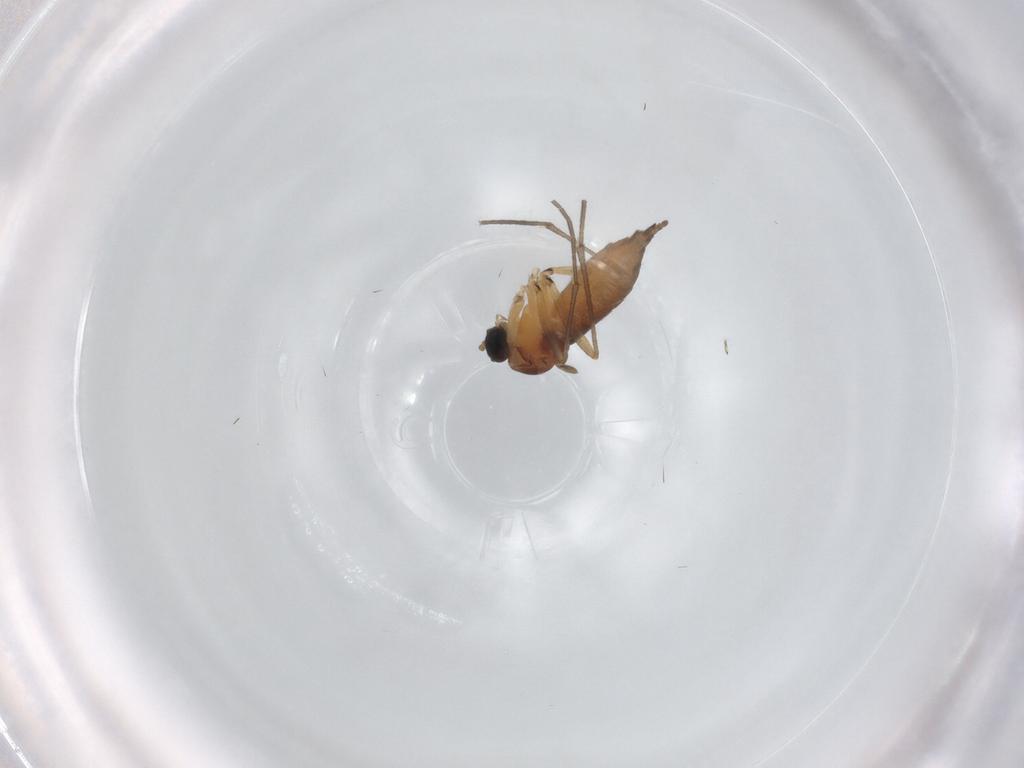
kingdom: Animalia
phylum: Arthropoda
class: Insecta
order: Diptera
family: Sciaridae
